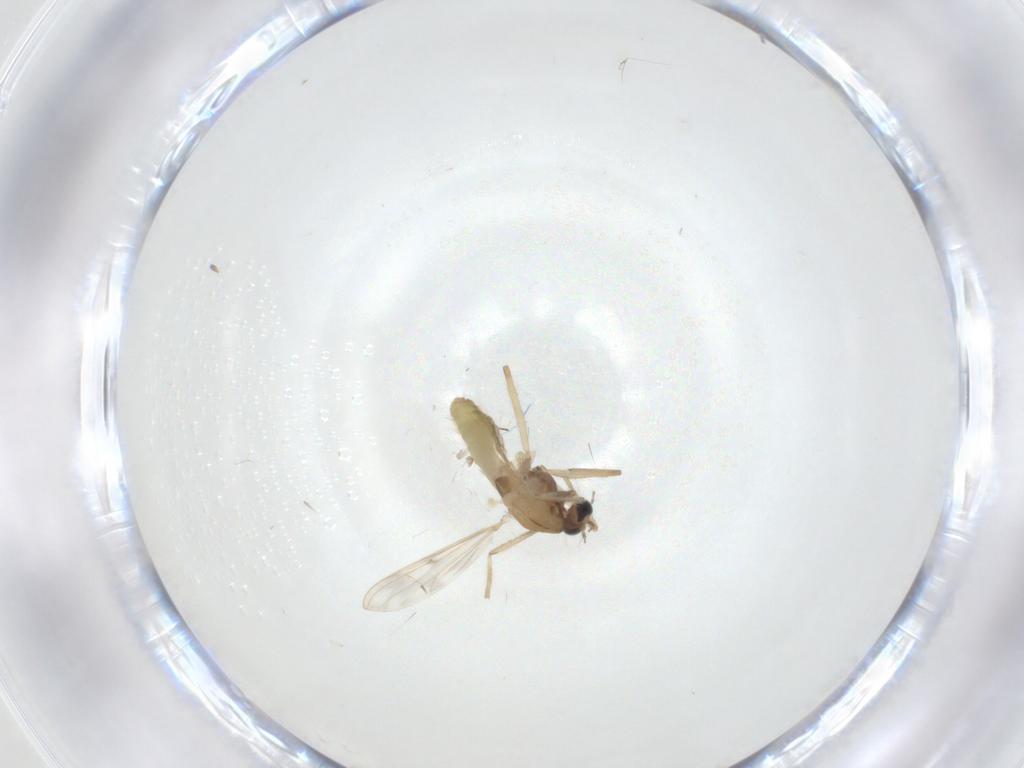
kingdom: Animalia
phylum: Arthropoda
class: Insecta
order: Diptera
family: Chironomidae
